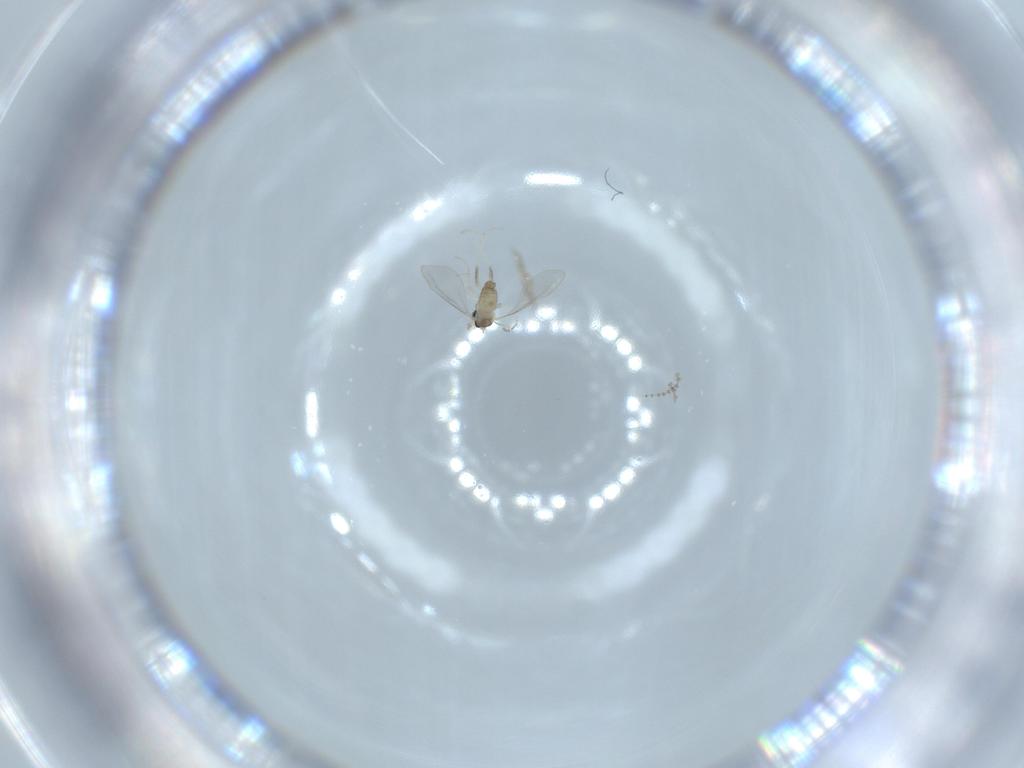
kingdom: Animalia
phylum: Arthropoda
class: Insecta
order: Diptera
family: Cecidomyiidae
